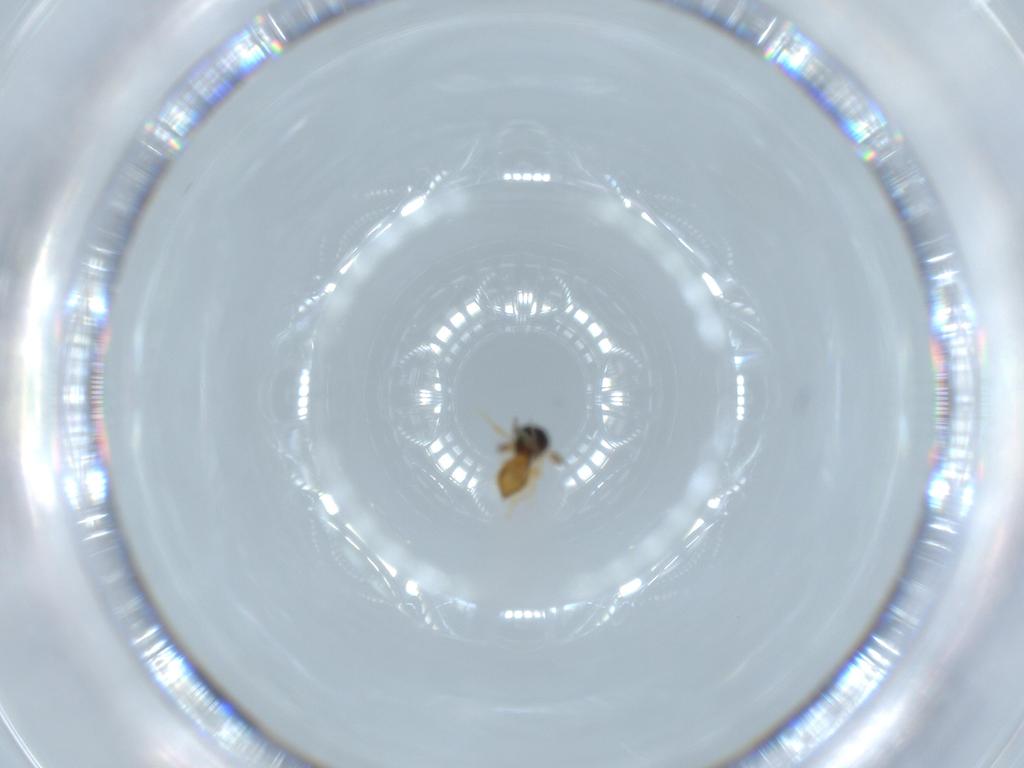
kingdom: Animalia
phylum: Arthropoda
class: Insecta
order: Hymenoptera
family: Scelionidae
